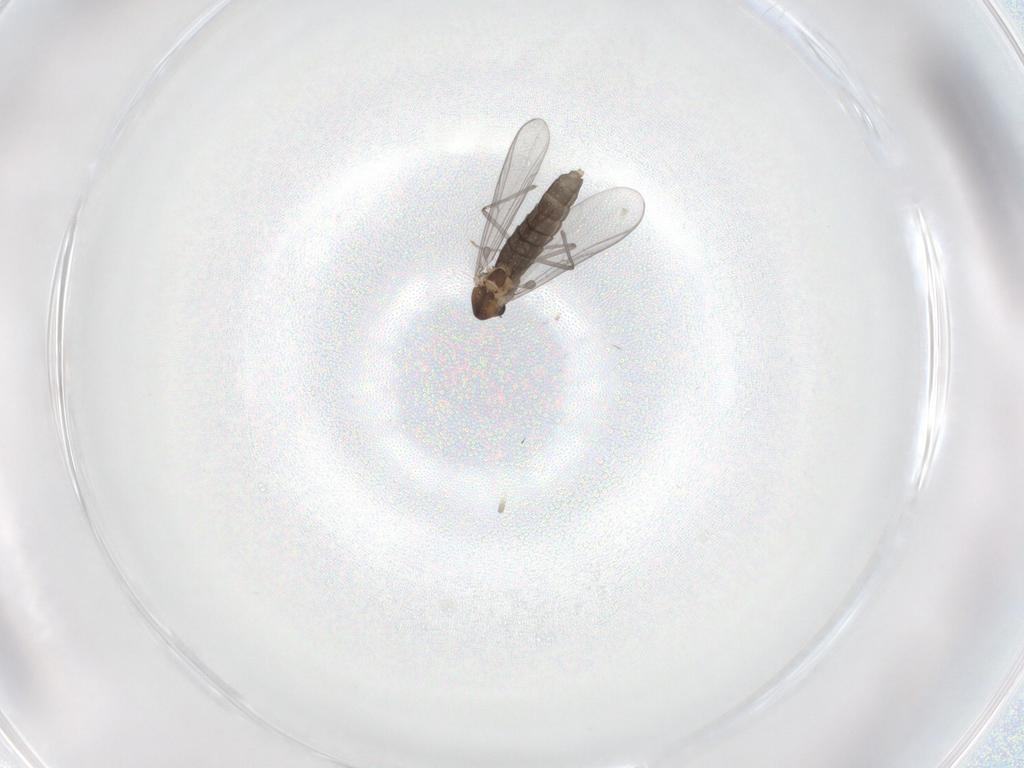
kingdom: Animalia
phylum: Arthropoda
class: Insecta
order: Diptera
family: Chironomidae
